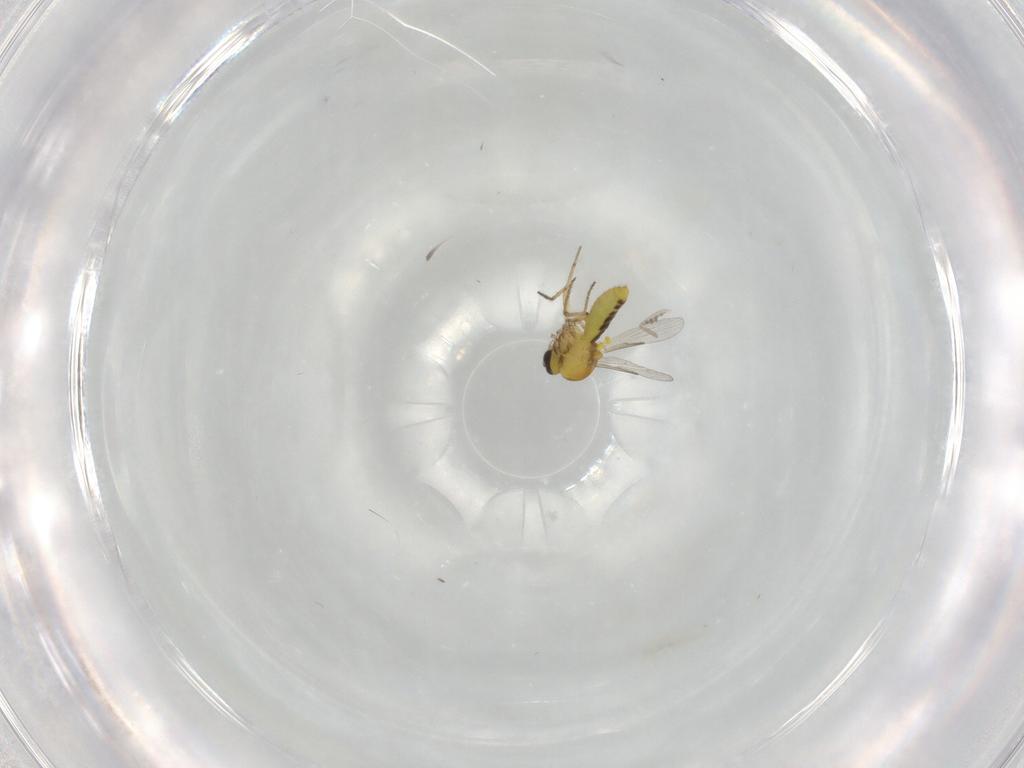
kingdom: Animalia
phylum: Arthropoda
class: Insecta
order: Diptera
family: Cecidomyiidae
